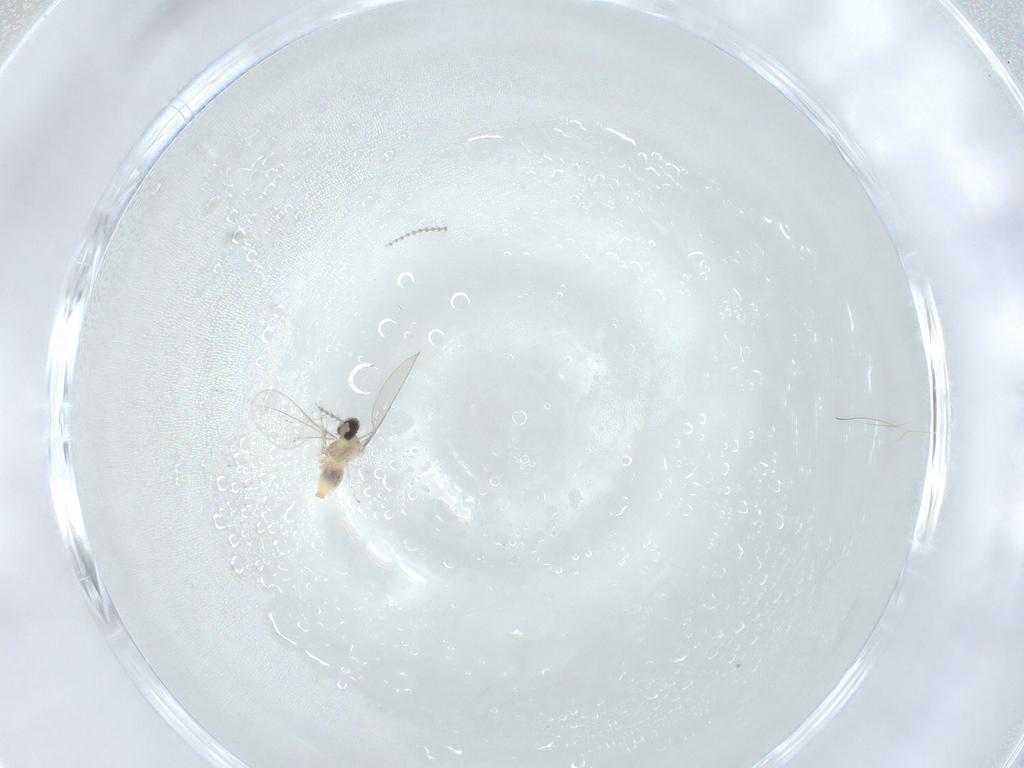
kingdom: Animalia
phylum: Arthropoda
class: Insecta
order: Diptera
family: Cecidomyiidae
